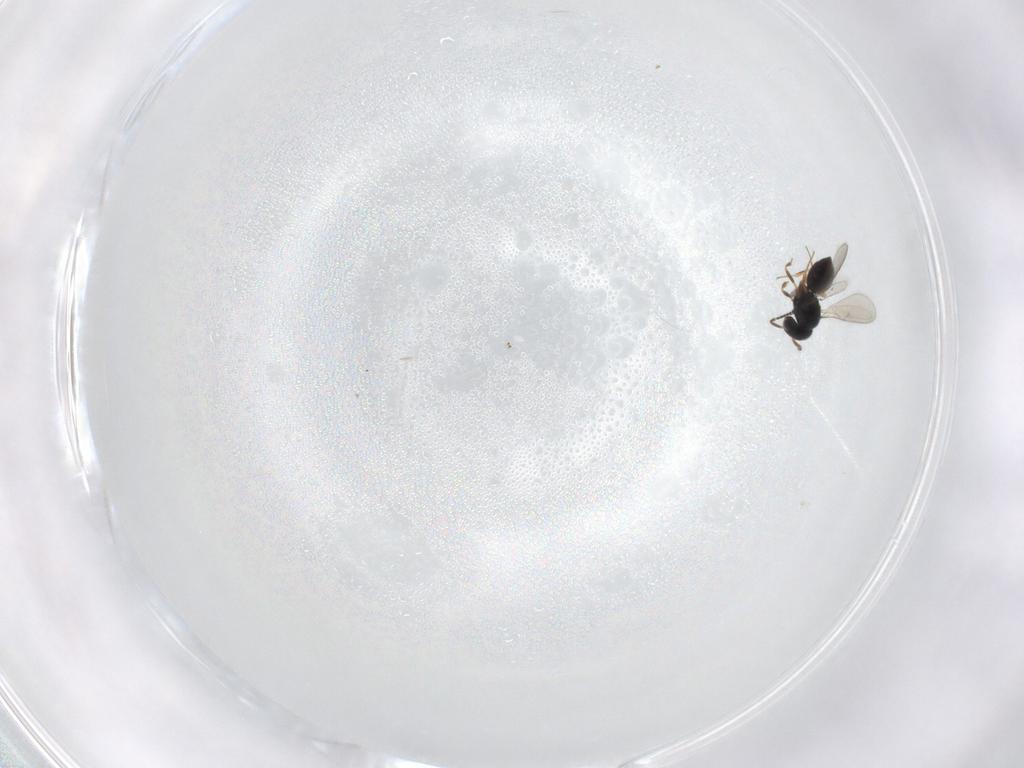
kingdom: Animalia
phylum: Arthropoda
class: Insecta
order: Hymenoptera
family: Scelionidae
